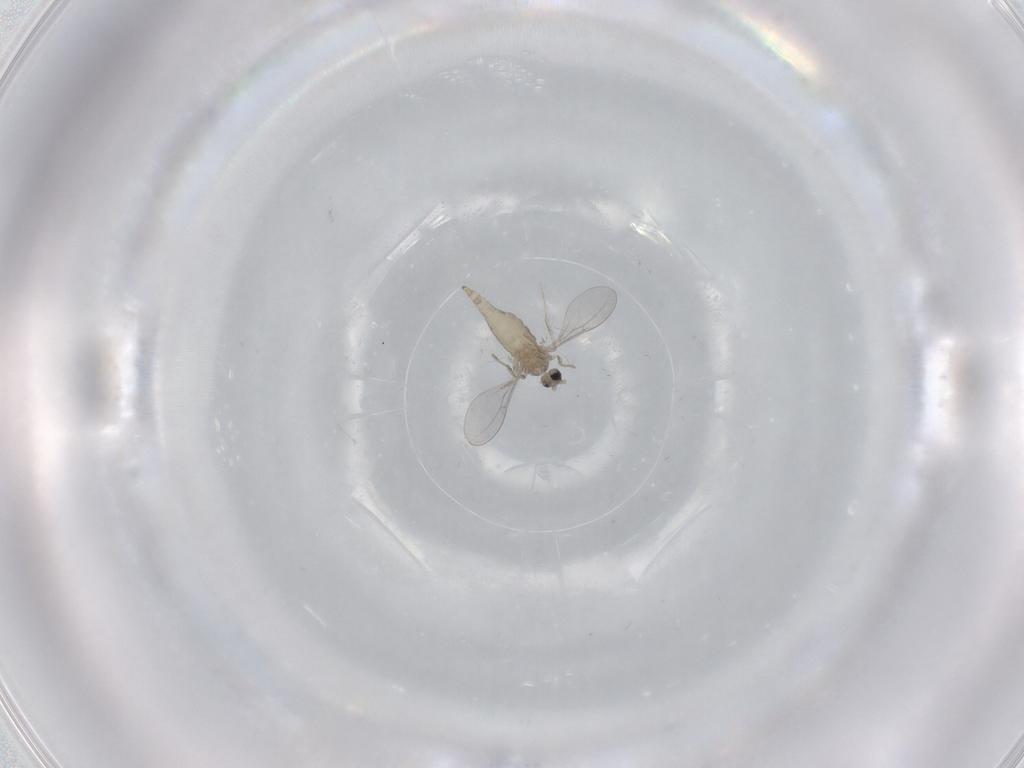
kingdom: Animalia
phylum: Arthropoda
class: Insecta
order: Diptera
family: Cecidomyiidae
